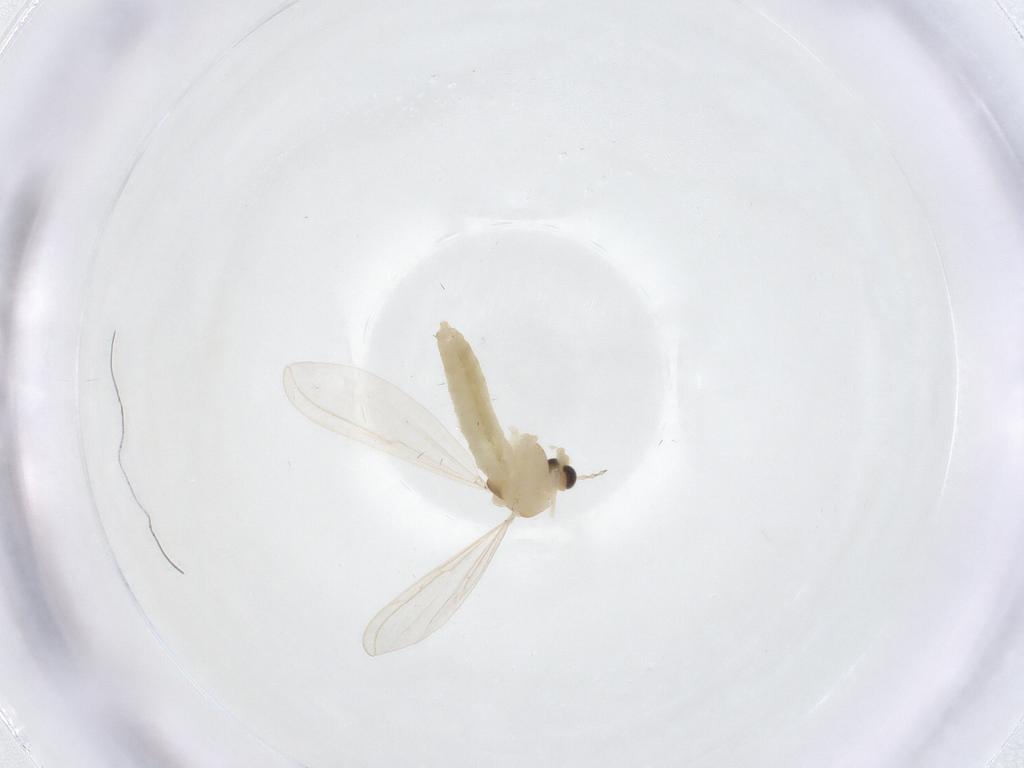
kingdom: Animalia
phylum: Arthropoda
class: Insecta
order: Diptera
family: Chironomidae
